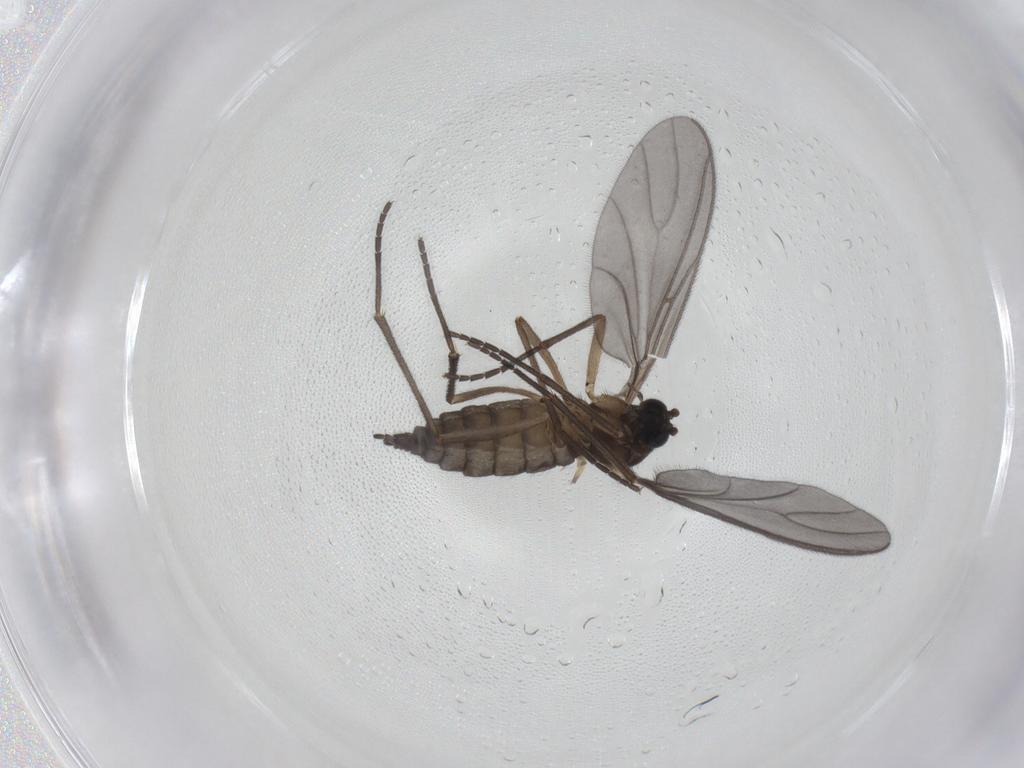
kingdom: Animalia
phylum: Arthropoda
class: Insecta
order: Diptera
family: Sciaridae
